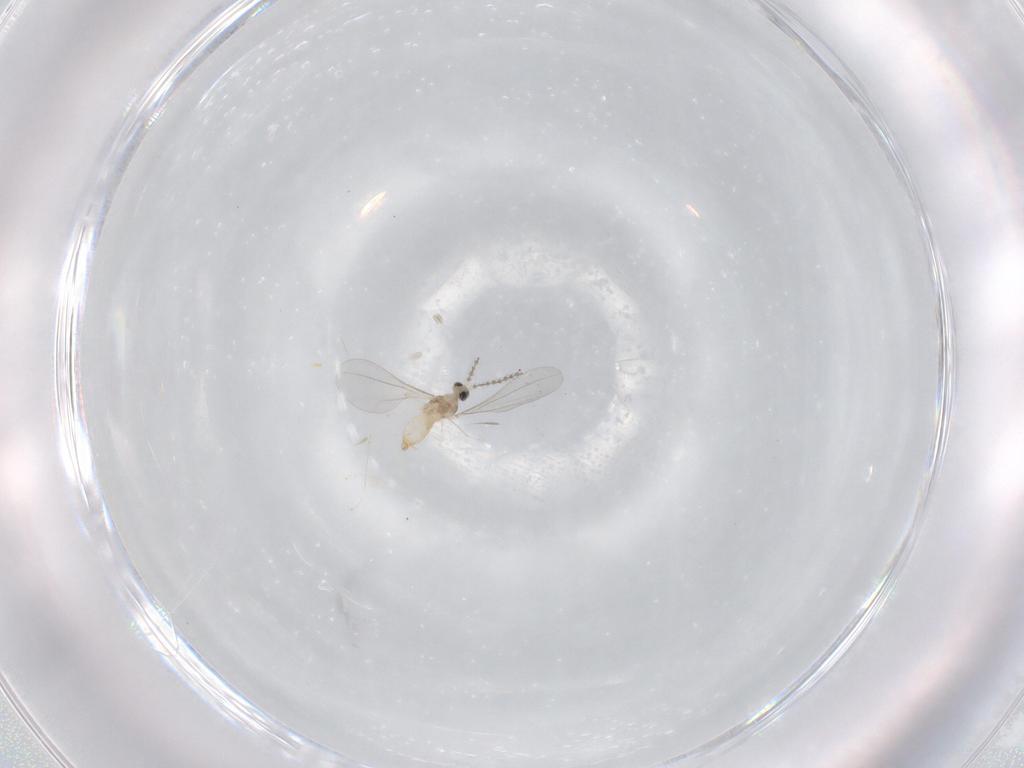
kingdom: Animalia
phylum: Arthropoda
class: Insecta
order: Diptera
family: Cecidomyiidae
